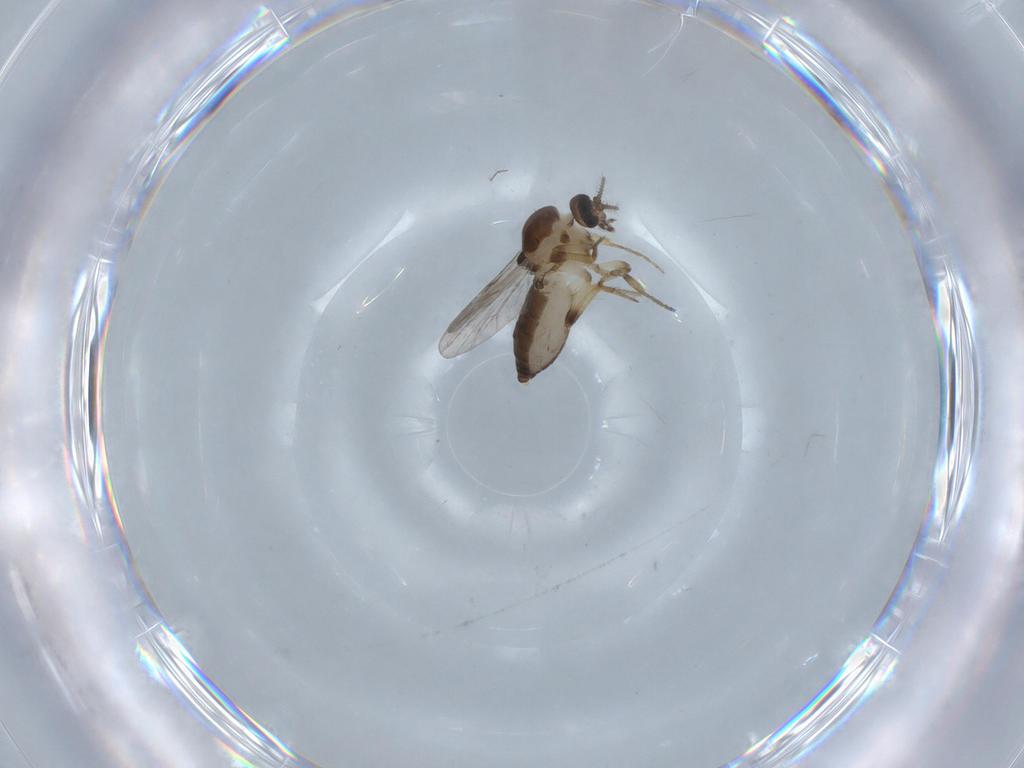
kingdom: Animalia
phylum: Arthropoda
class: Insecta
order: Diptera
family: Ceratopogonidae
